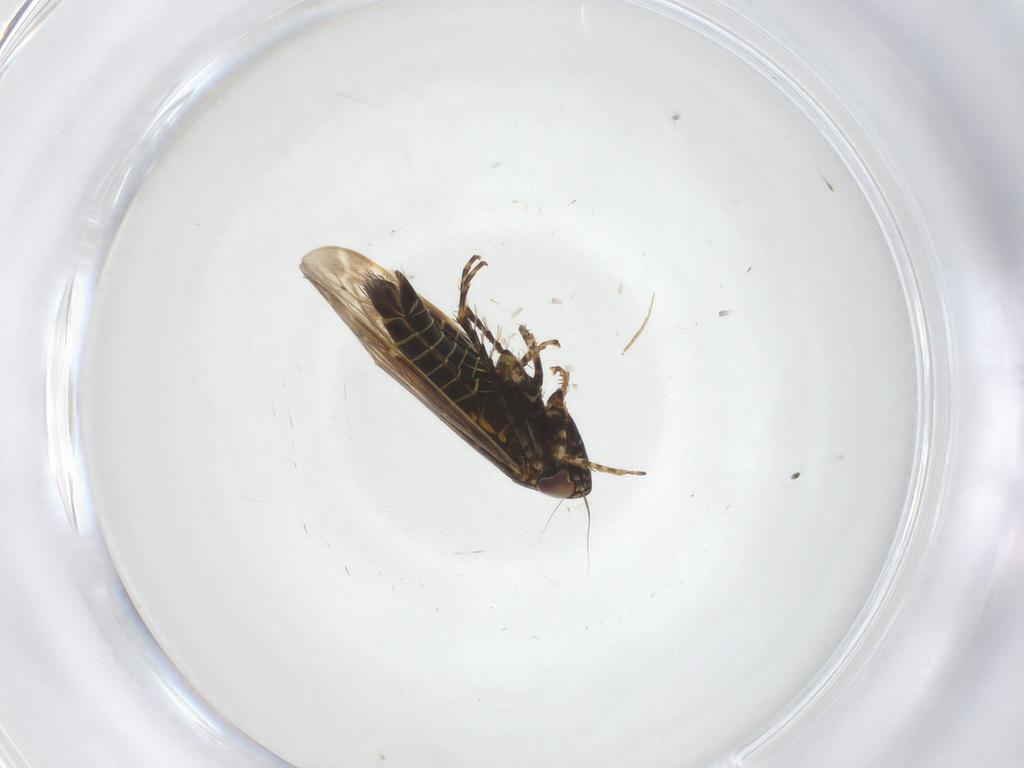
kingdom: Animalia
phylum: Arthropoda
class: Insecta
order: Hemiptera
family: Cicadellidae
